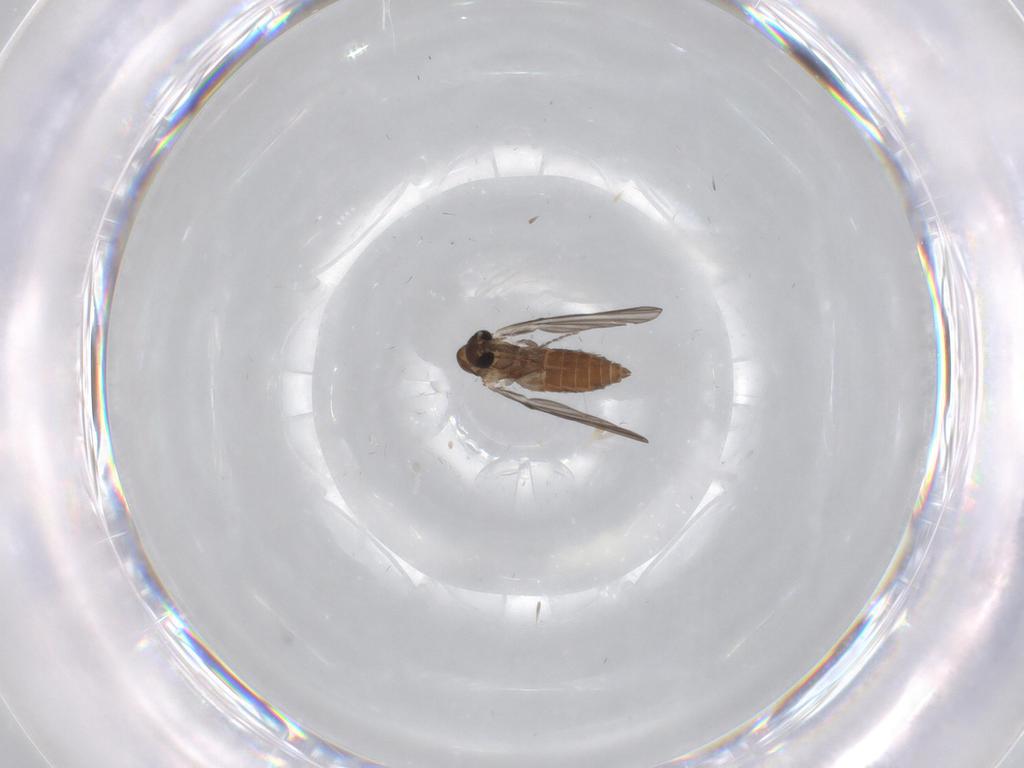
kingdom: Animalia
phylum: Arthropoda
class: Insecta
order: Diptera
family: Psychodidae
